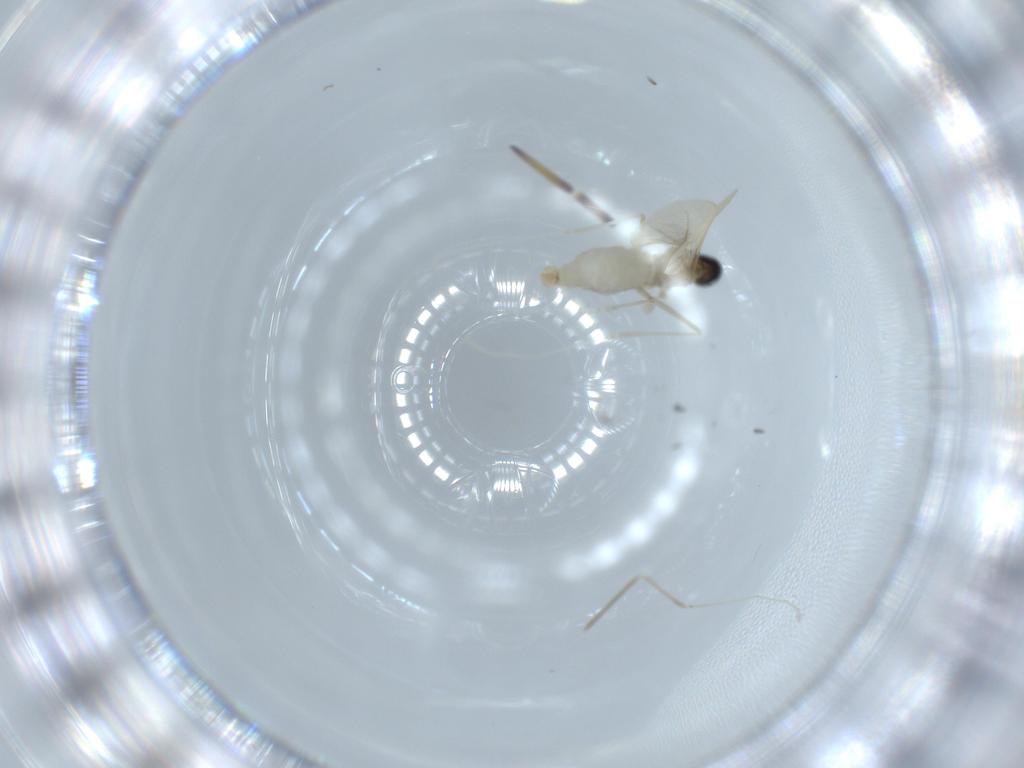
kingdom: Animalia
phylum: Arthropoda
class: Insecta
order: Diptera
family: Cecidomyiidae
